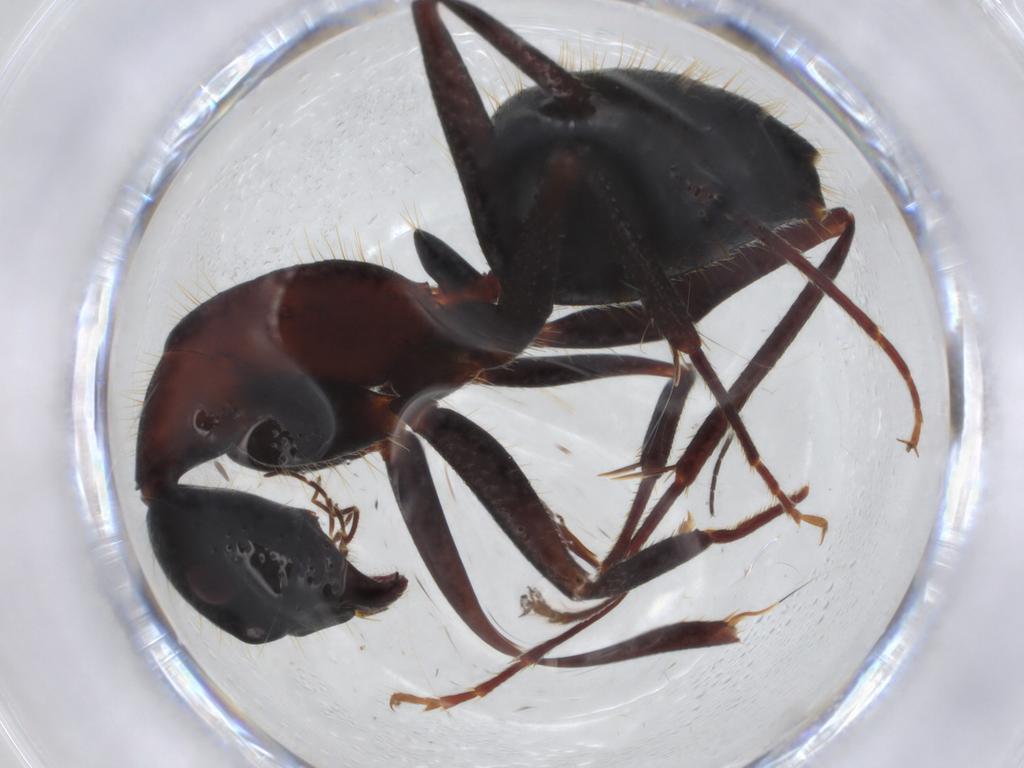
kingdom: Animalia
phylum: Arthropoda
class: Insecta
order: Hymenoptera
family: Formicidae
